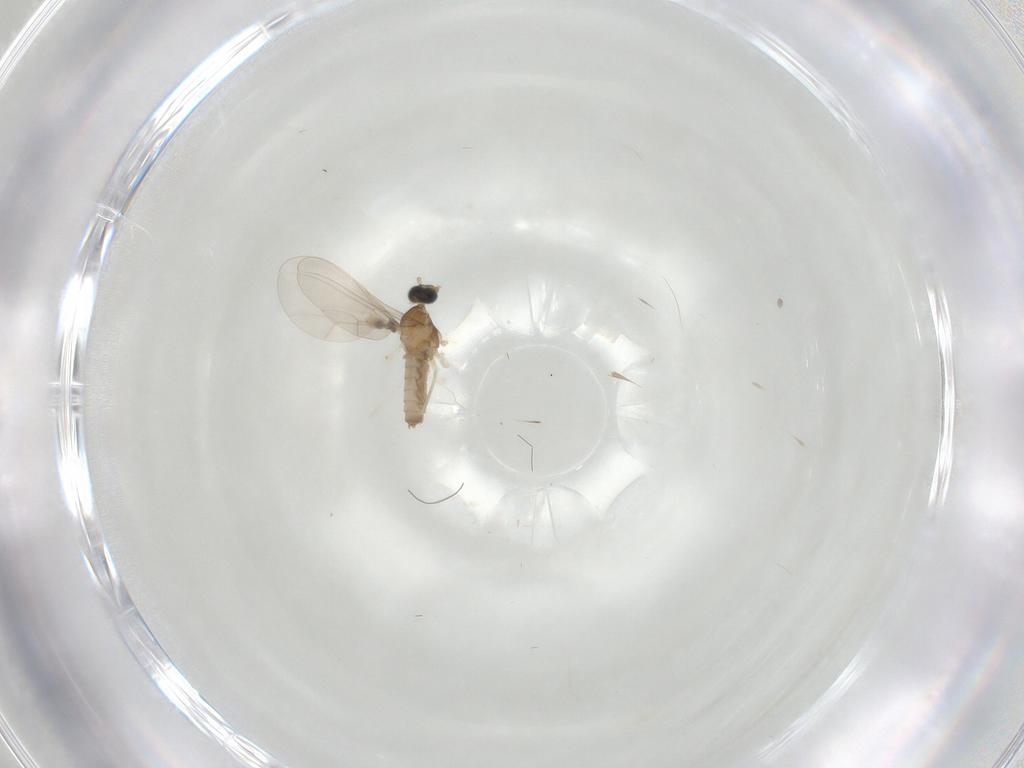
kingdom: Animalia
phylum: Arthropoda
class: Insecta
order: Diptera
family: Cecidomyiidae
